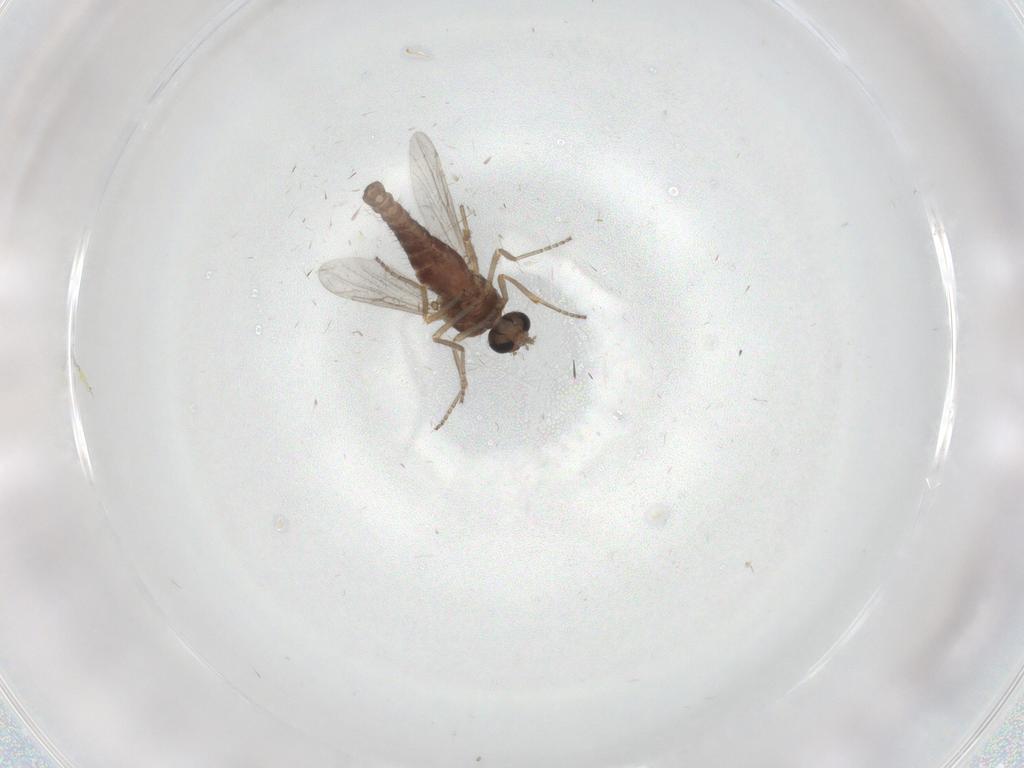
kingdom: Animalia
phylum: Arthropoda
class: Insecta
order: Diptera
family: Ceratopogonidae
